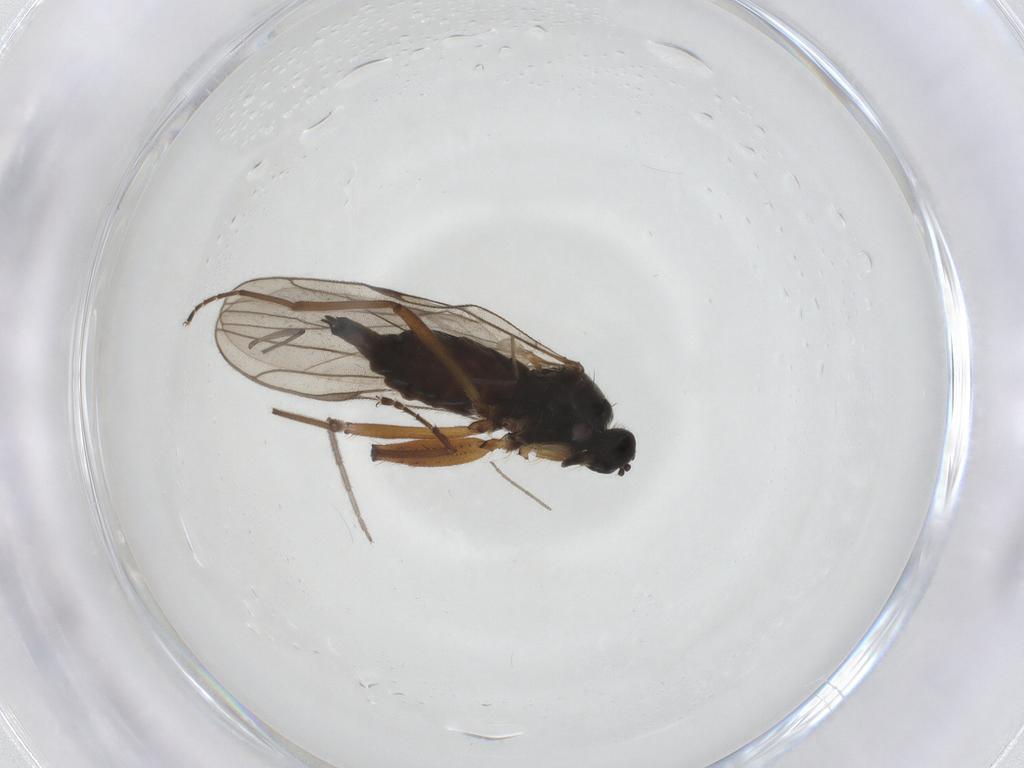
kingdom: Animalia
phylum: Arthropoda
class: Insecta
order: Diptera
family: Hybotidae
